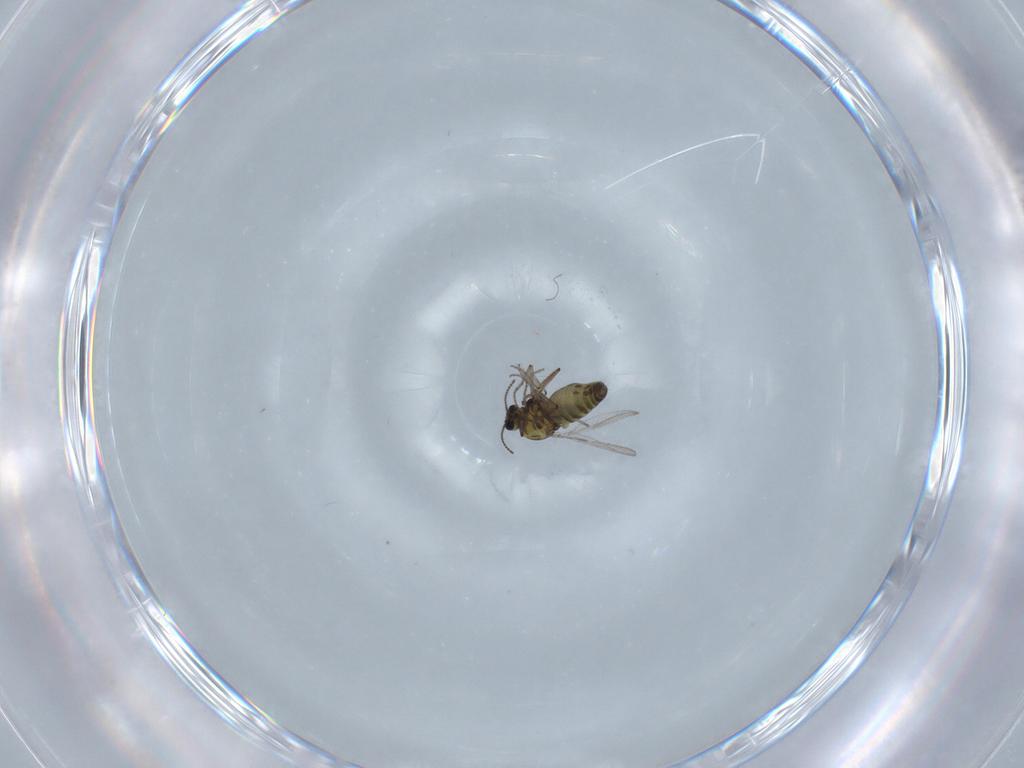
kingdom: Animalia
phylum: Arthropoda
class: Insecta
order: Diptera
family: Ceratopogonidae
